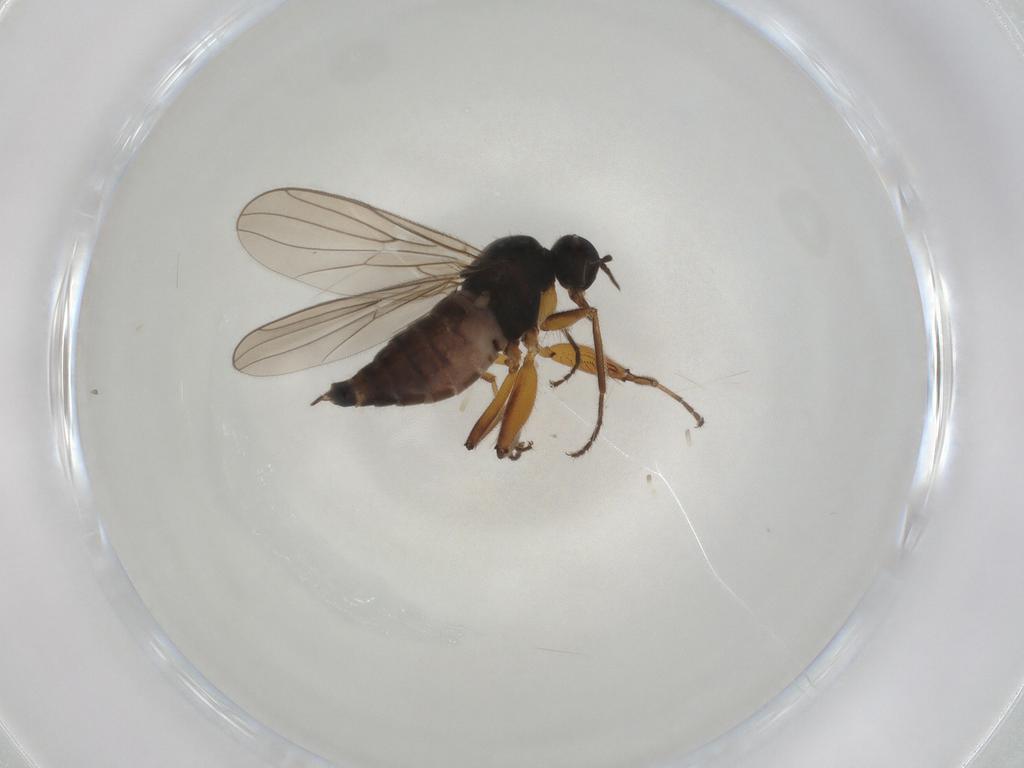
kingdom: Animalia
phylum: Arthropoda
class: Insecta
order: Diptera
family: Hybotidae
